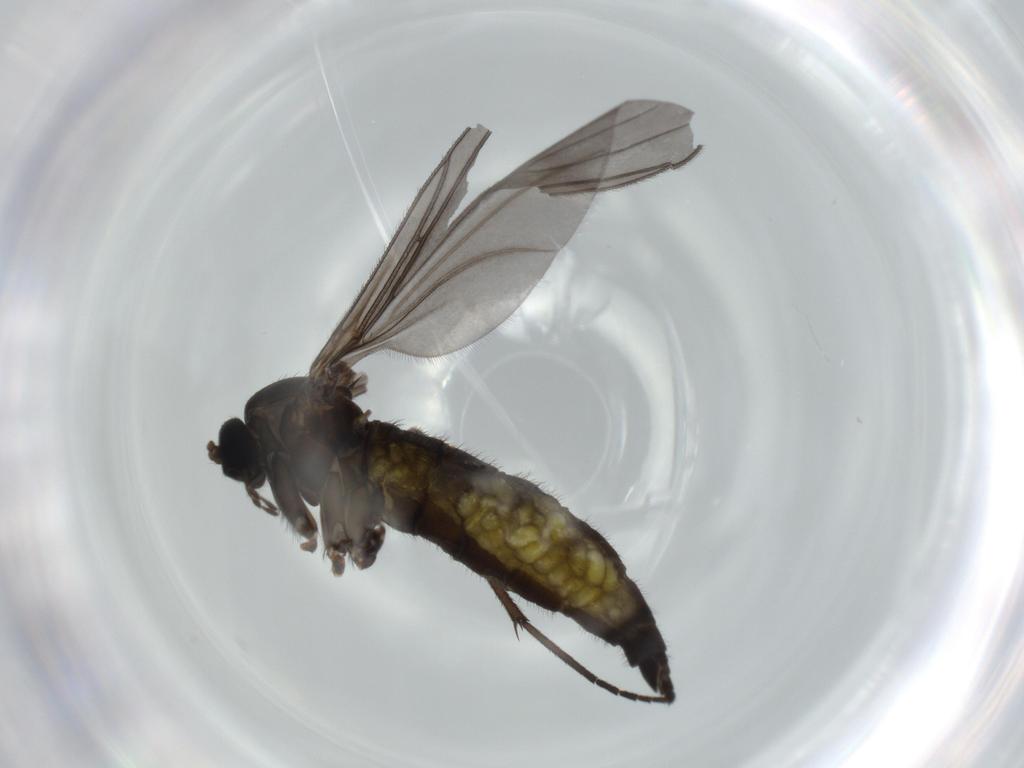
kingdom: Animalia
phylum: Arthropoda
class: Insecta
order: Diptera
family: Sciaridae
